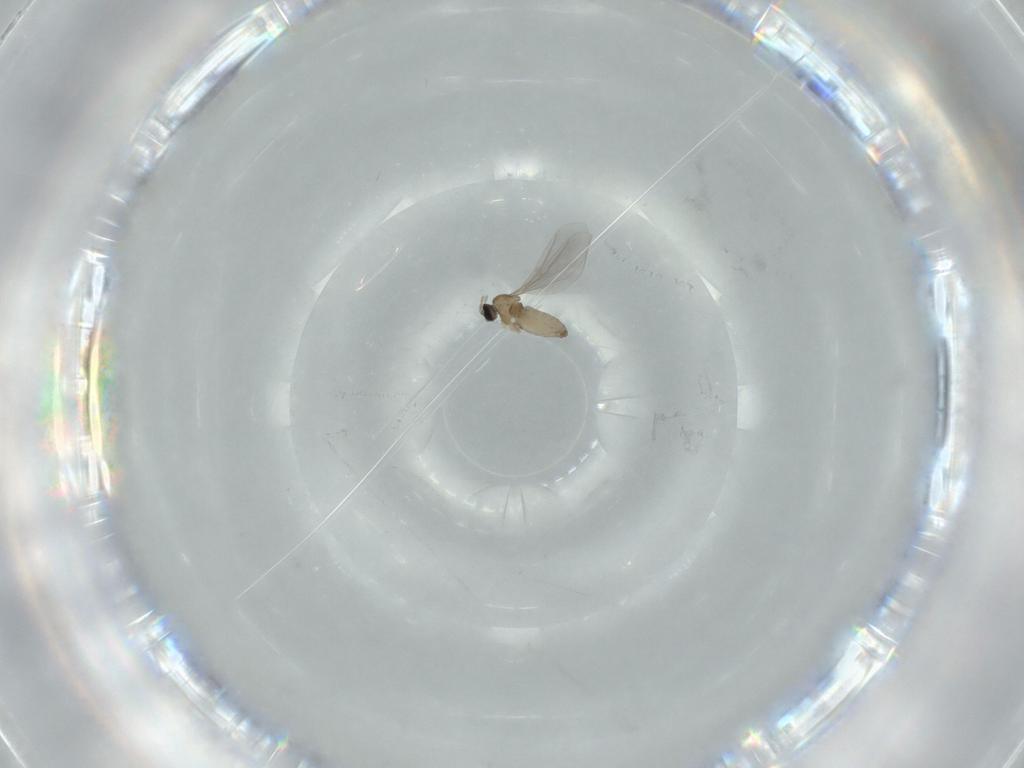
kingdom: Animalia
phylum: Arthropoda
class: Insecta
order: Diptera
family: Cecidomyiidae
